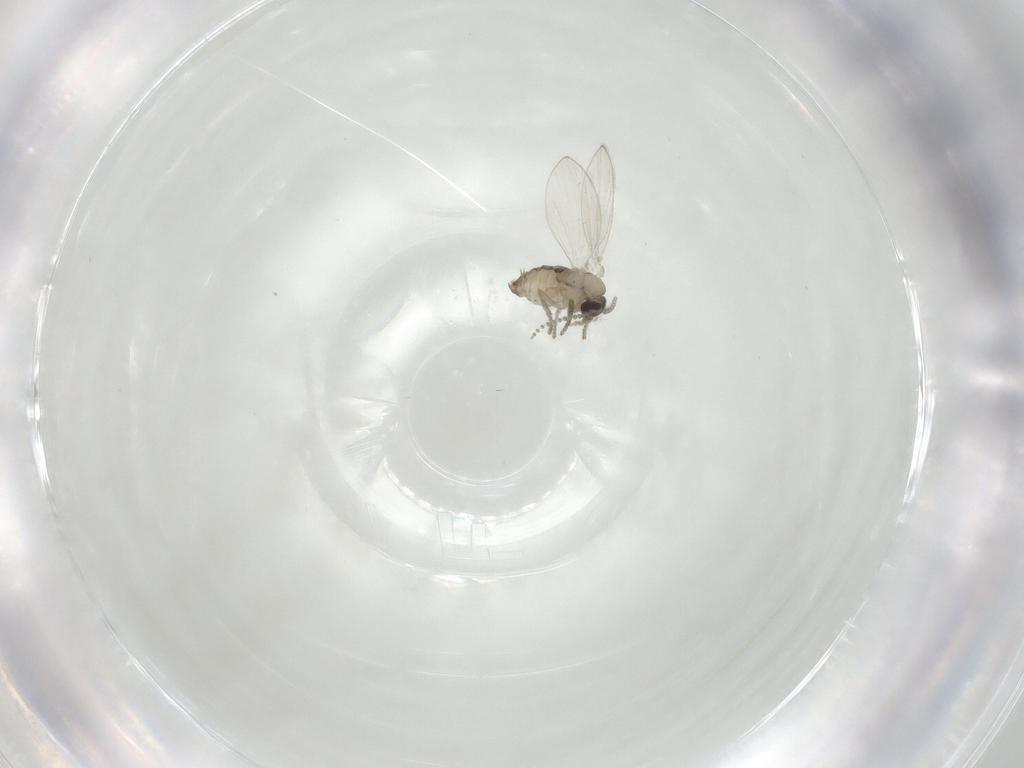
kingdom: Animalia
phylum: Arthropoda
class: Insecta
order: Diptera
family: Psychodidae
